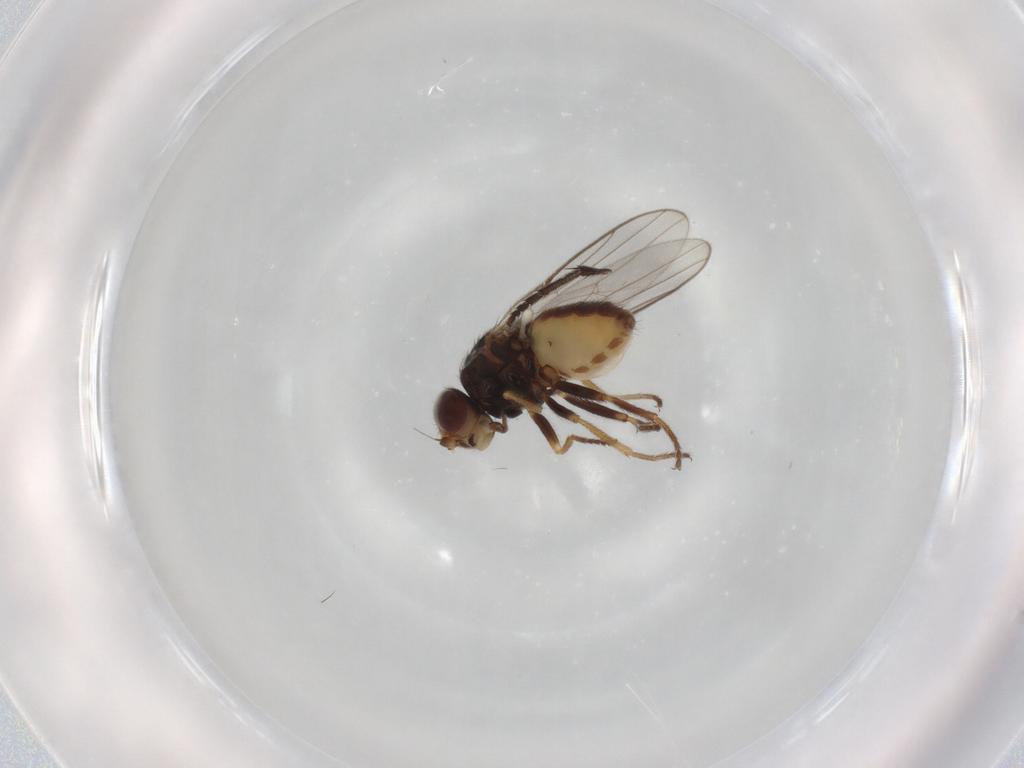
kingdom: Animalia
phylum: Arthropoda
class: Insecta
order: Diptera
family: Chloropidae
